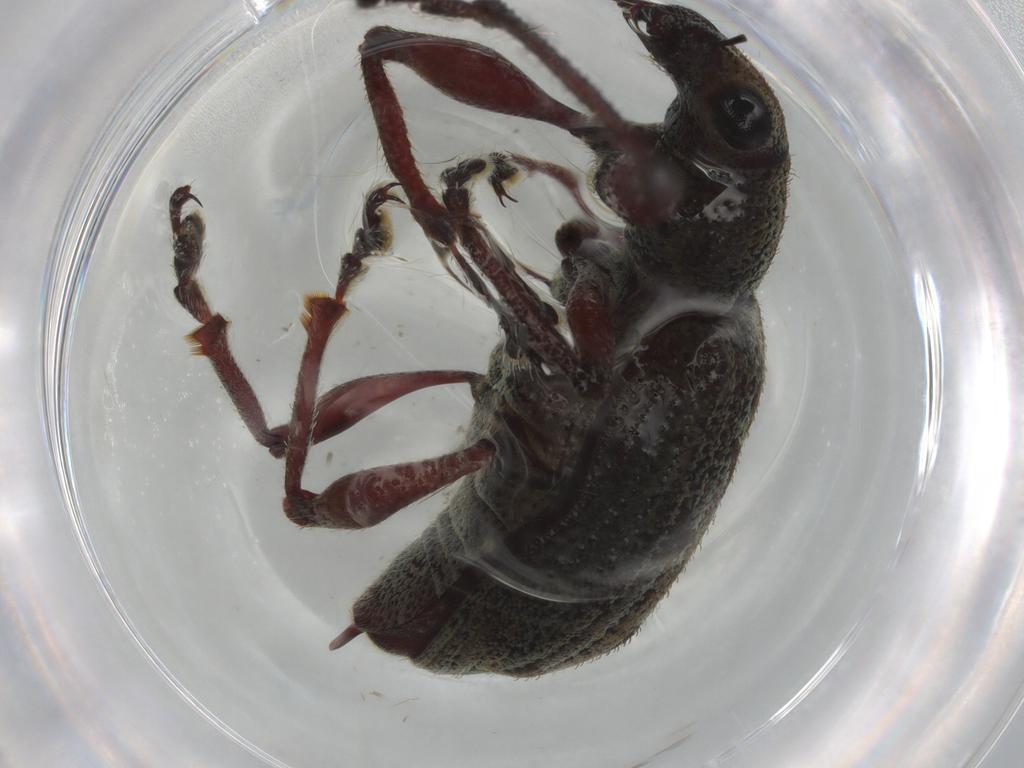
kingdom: Animalia
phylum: Arthropoda
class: Insecta
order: Coleoptera
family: Curculionidae
